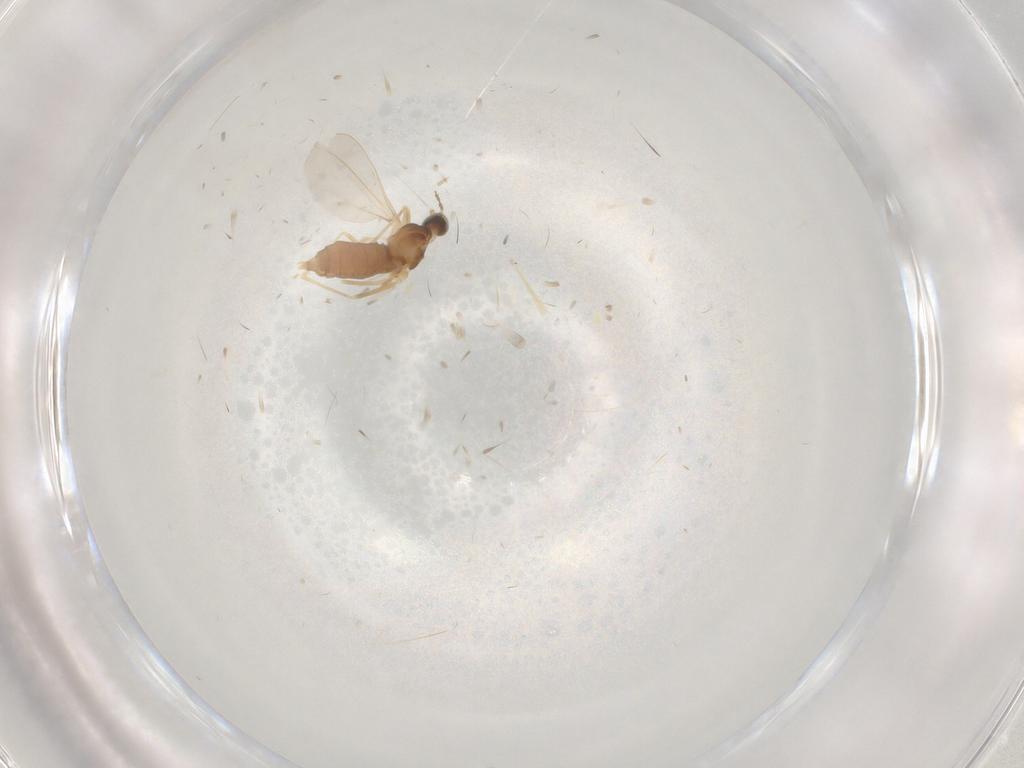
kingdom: Animalia
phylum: Arthropoda
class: Insecta
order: Diptera
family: Cecidomyiidae
